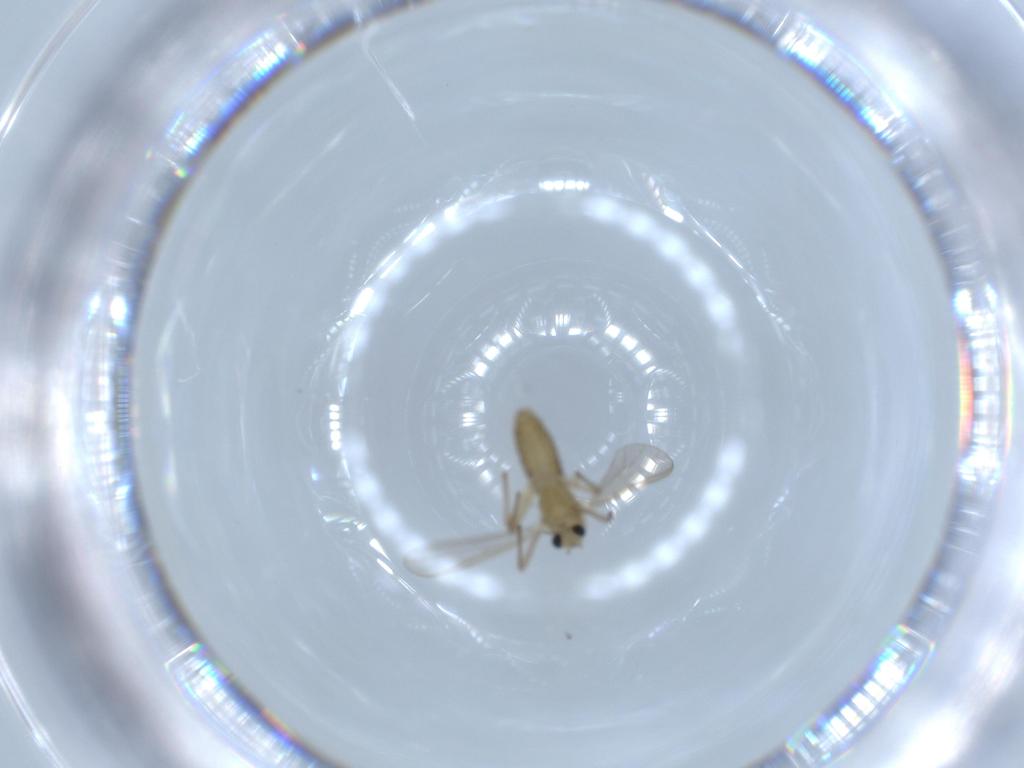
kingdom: Animalia
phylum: Arthropoda
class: Insecta
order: Diptera
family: Chironomidae
